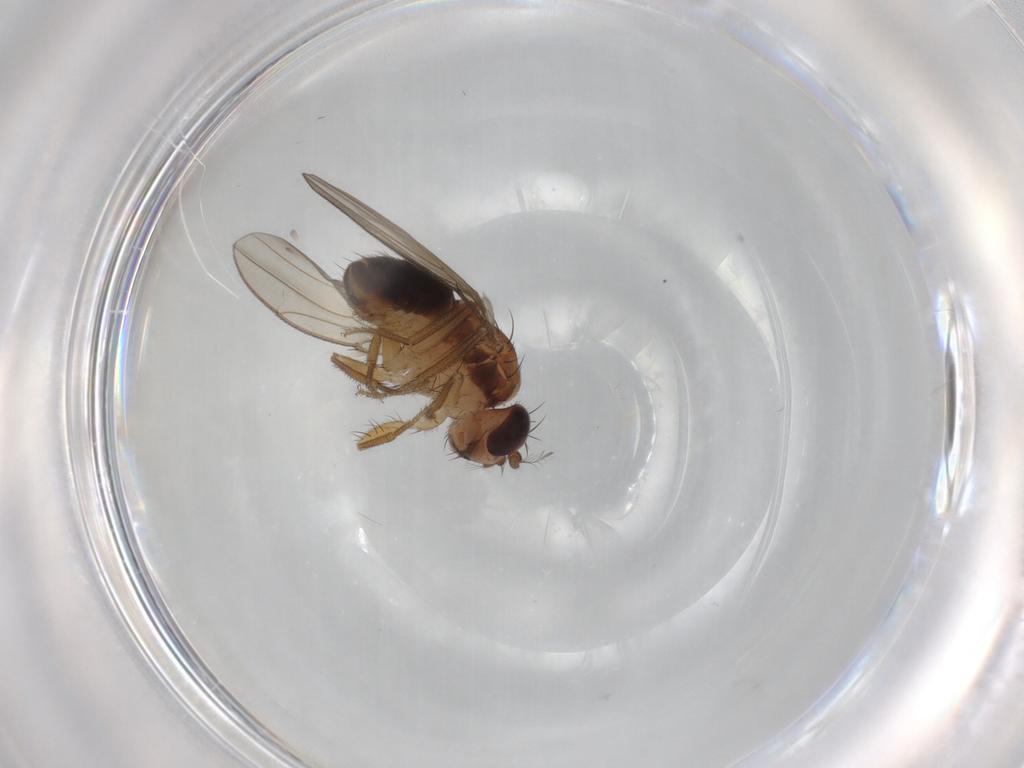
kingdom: Animalia
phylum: Arthropoda
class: Insecta
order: Diptera
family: Drosophilidae
